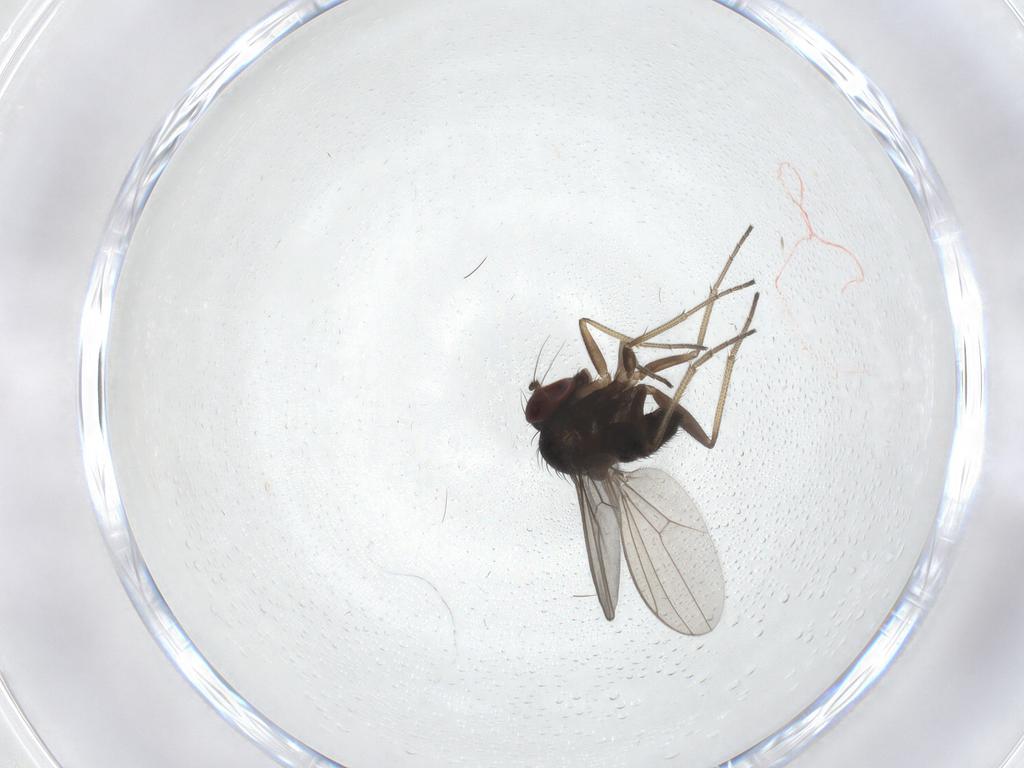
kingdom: Animalia
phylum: Arthropoda
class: Insecta
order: Diptera
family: Dolichopodidae
